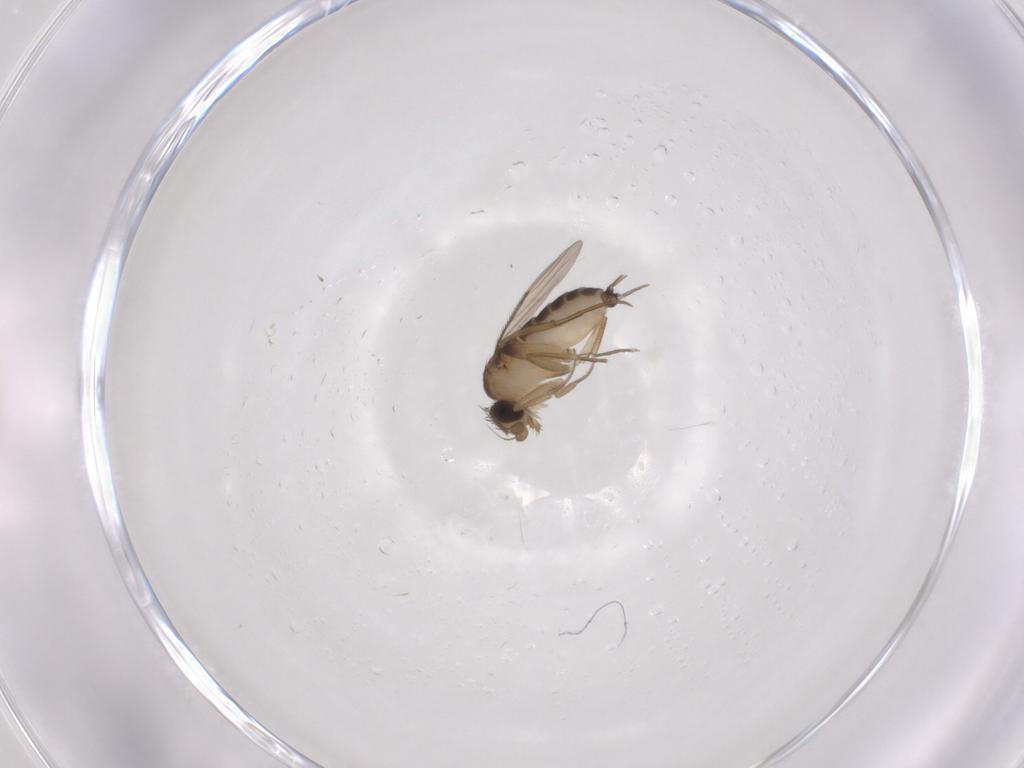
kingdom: Animalia
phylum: Arthropoda
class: Insecta
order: Diptera
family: Phoridae
